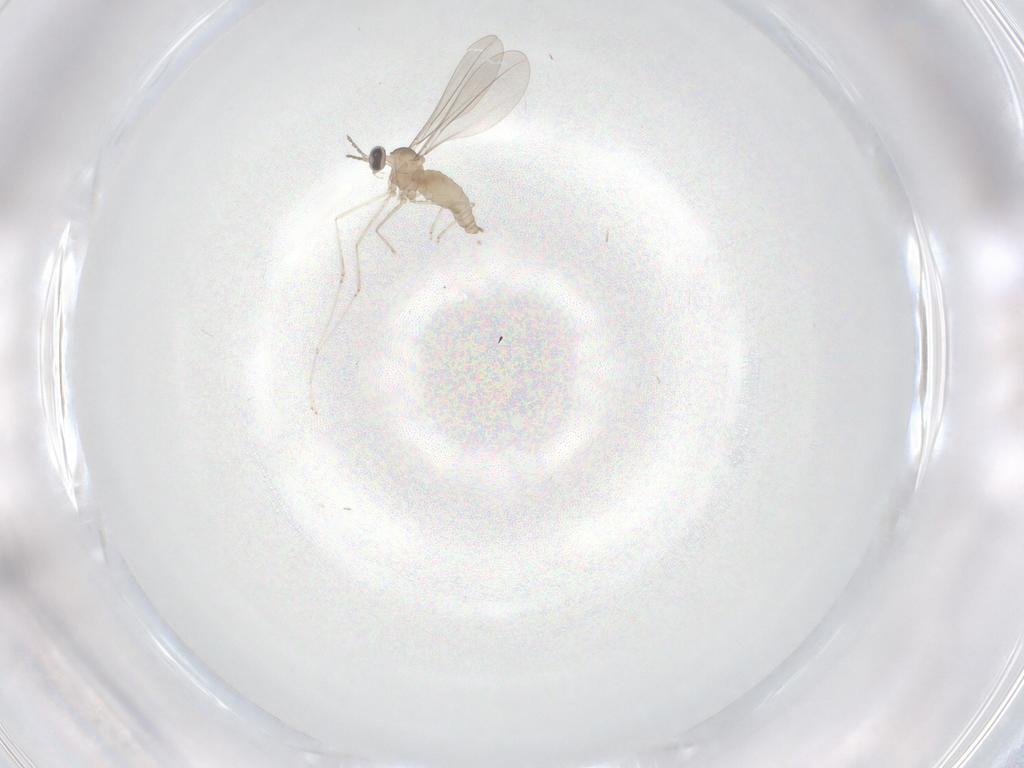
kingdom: Animalia
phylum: Arthropoda
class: Insecta
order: Diptera
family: Cecidomyiidae
